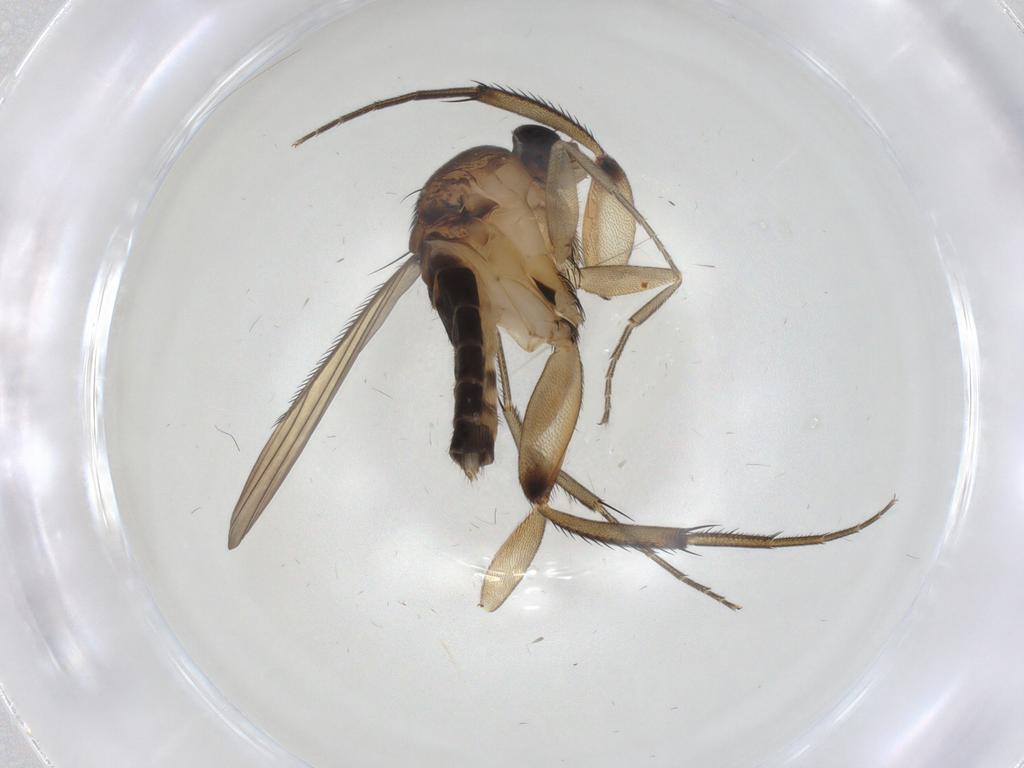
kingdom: Animalia
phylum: Arthropoda
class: Insecta
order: Diptera
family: Phoridae
